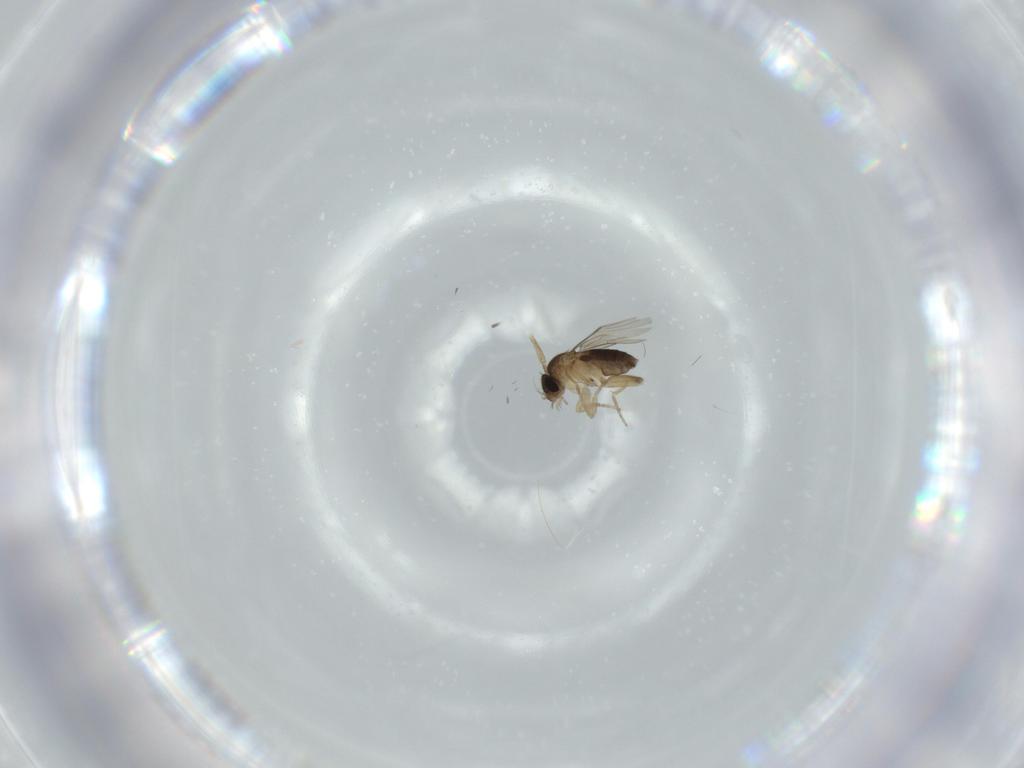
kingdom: Animalia
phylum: Arthropoda
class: Insecta
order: Diptera
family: Phoridae
